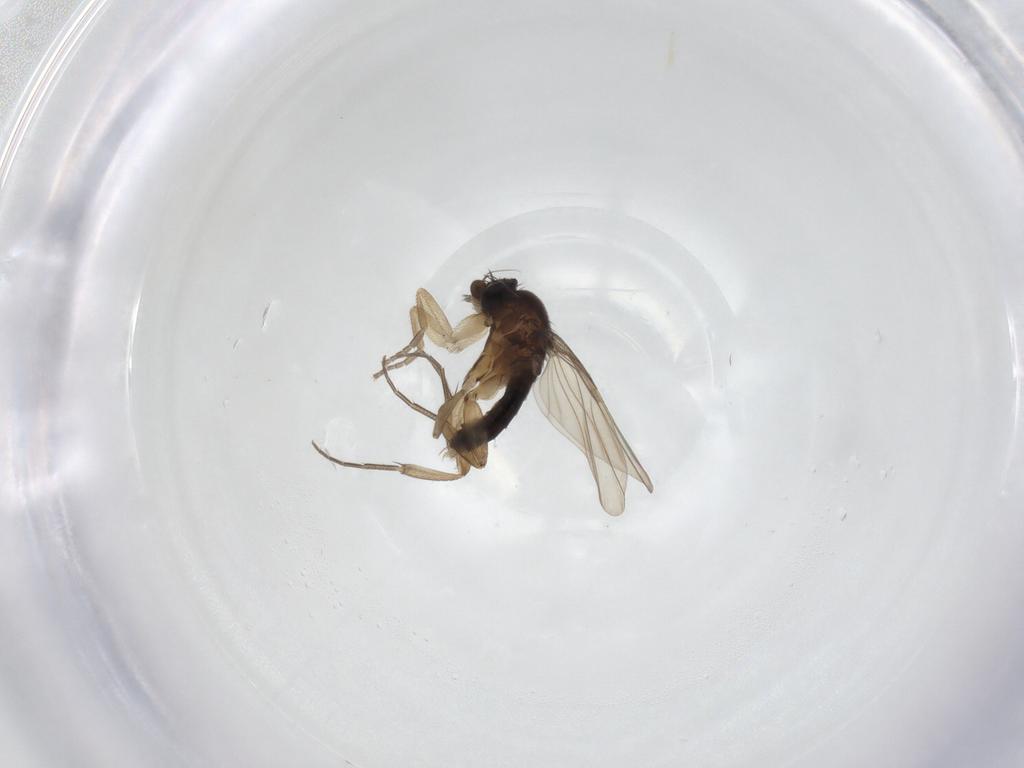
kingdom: Animalia
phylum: Arthropoda
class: Insecta
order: Diptera
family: Phoridae
